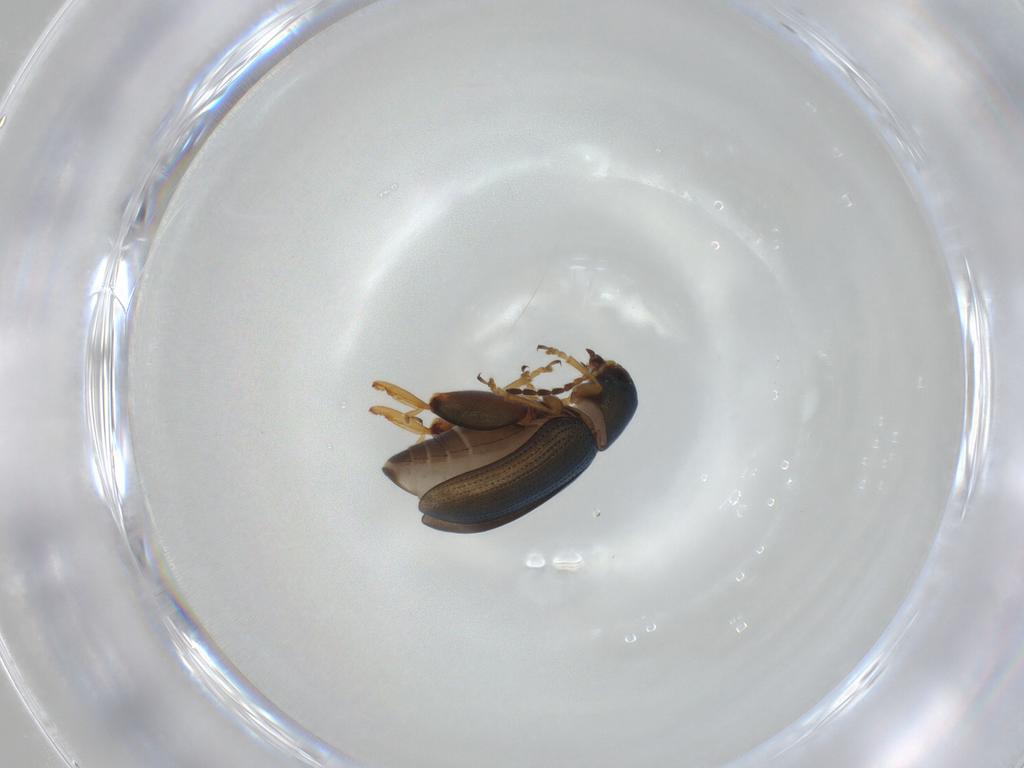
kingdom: Animalia
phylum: Arthropoda
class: Insecta
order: Coleoptera
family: Chrysomelidae
